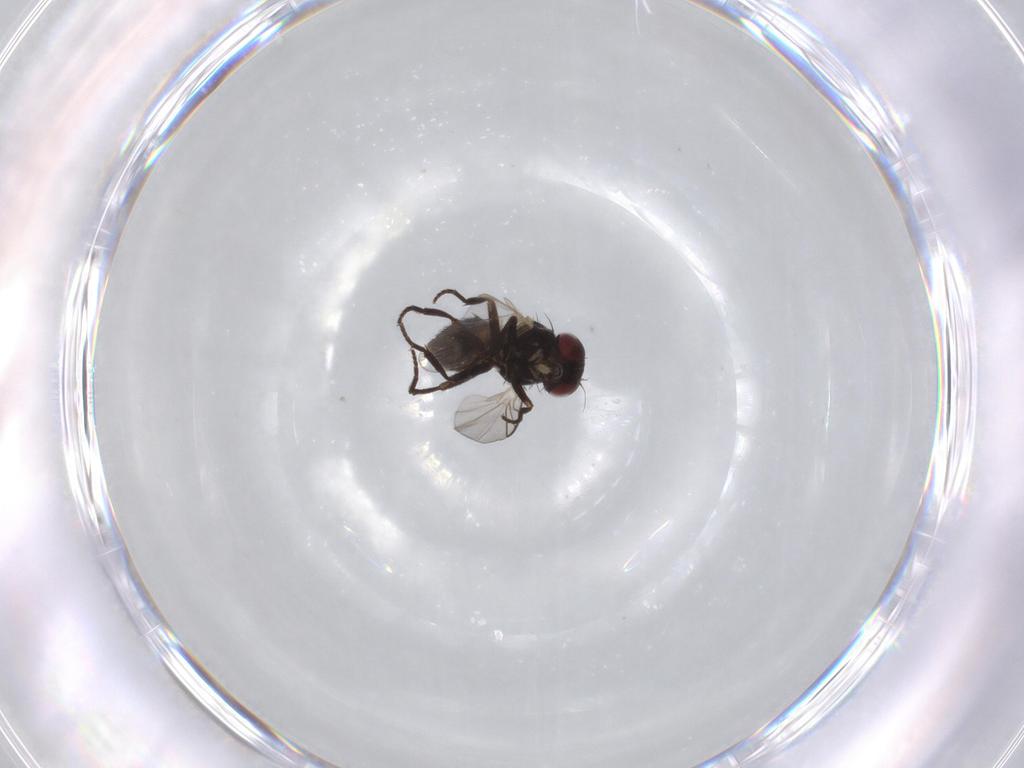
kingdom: Animalia
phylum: Arthropoda
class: Insecta
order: Diptera
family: Agromyzidae
